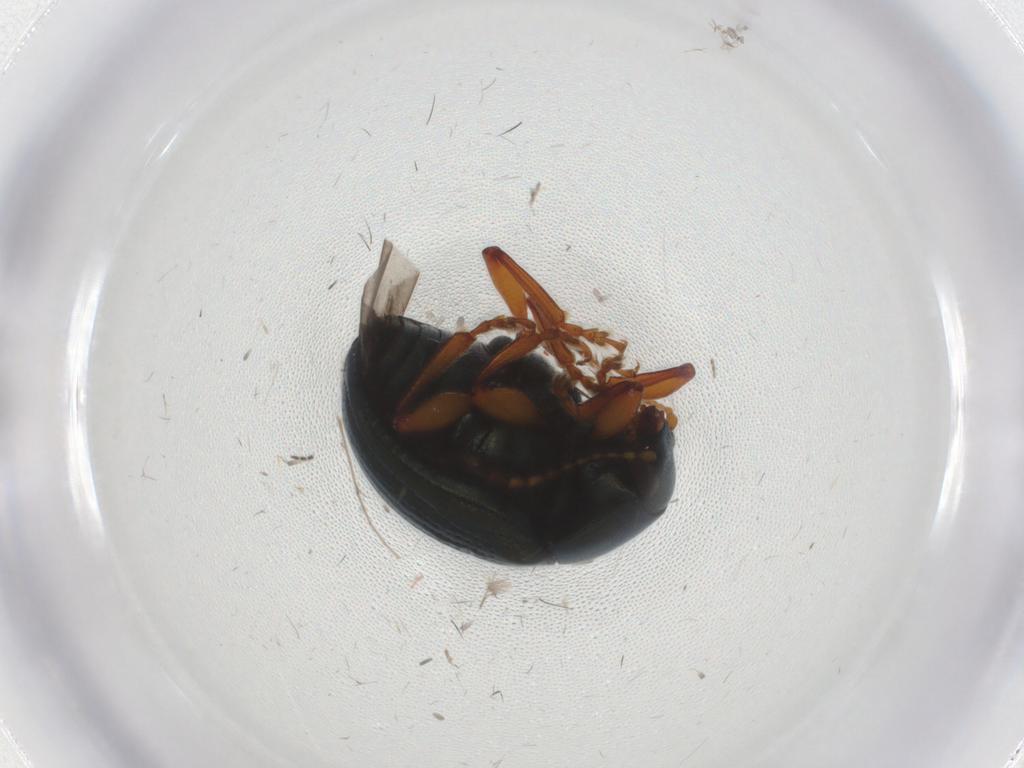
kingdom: Animalia
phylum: Arthropoda
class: Insecta
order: Coleoptera
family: Chrysomelidae
